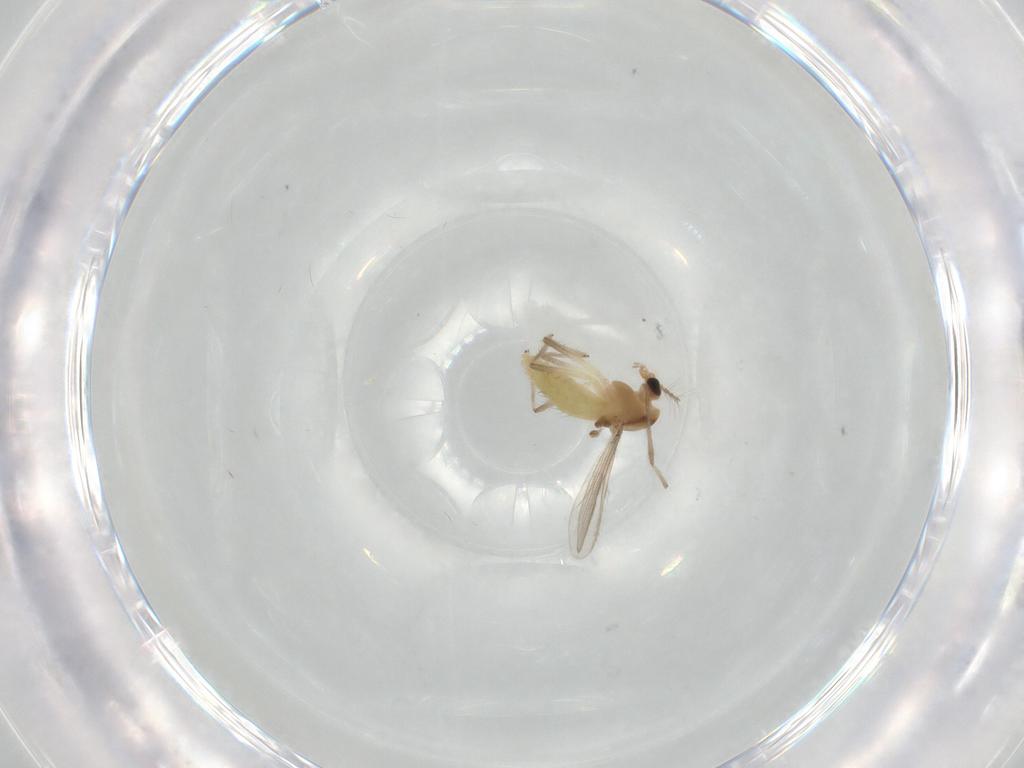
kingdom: Animalia
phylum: Arthropoda
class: Insecta
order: Diptera
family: Chironomidae
